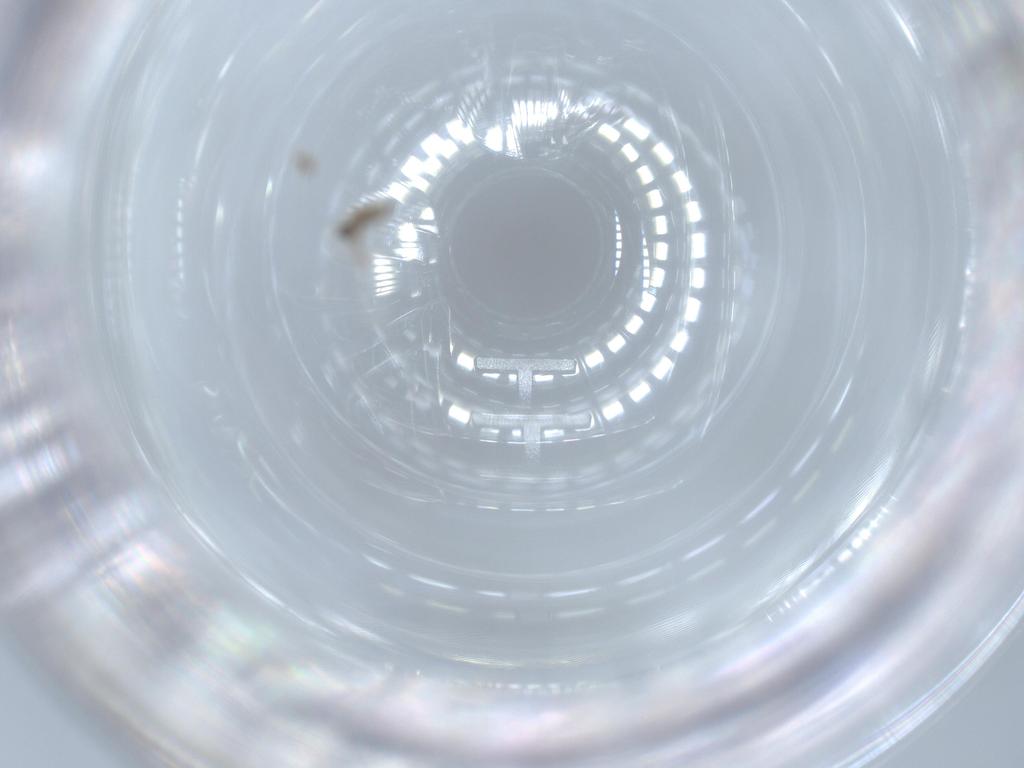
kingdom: Animalia
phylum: Arthropoda
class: Insecta
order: Diptera
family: Cecidomyiidae
